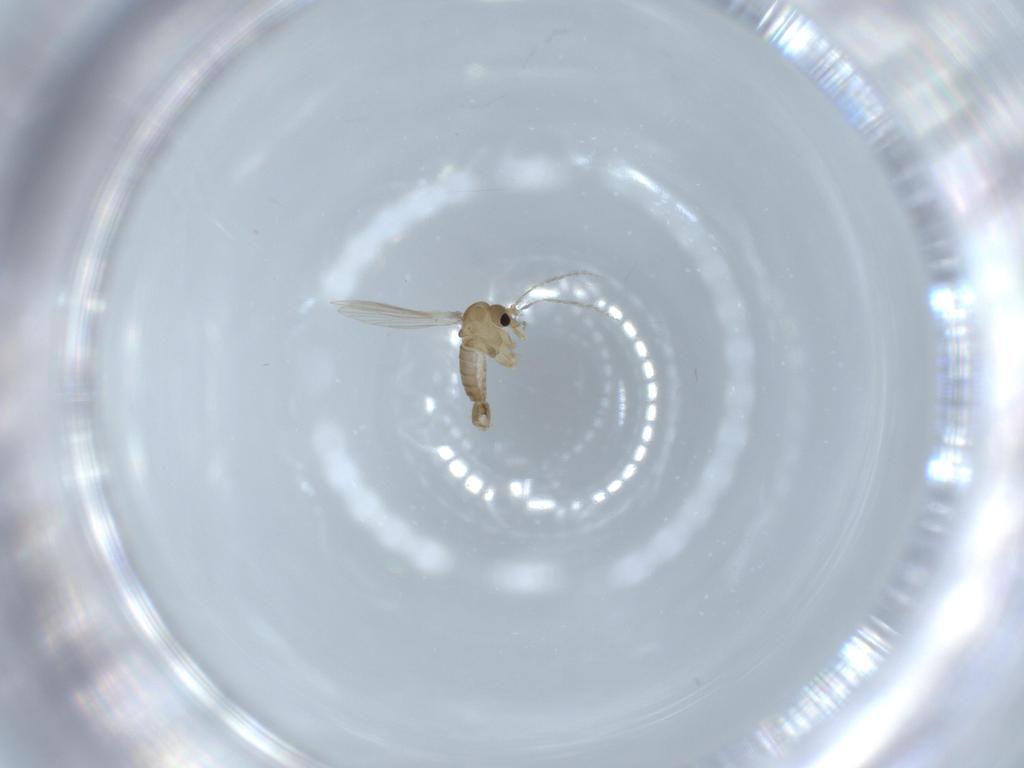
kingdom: Animalia
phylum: Arthropoda
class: Insecta
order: Diptera
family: Psychodidae
